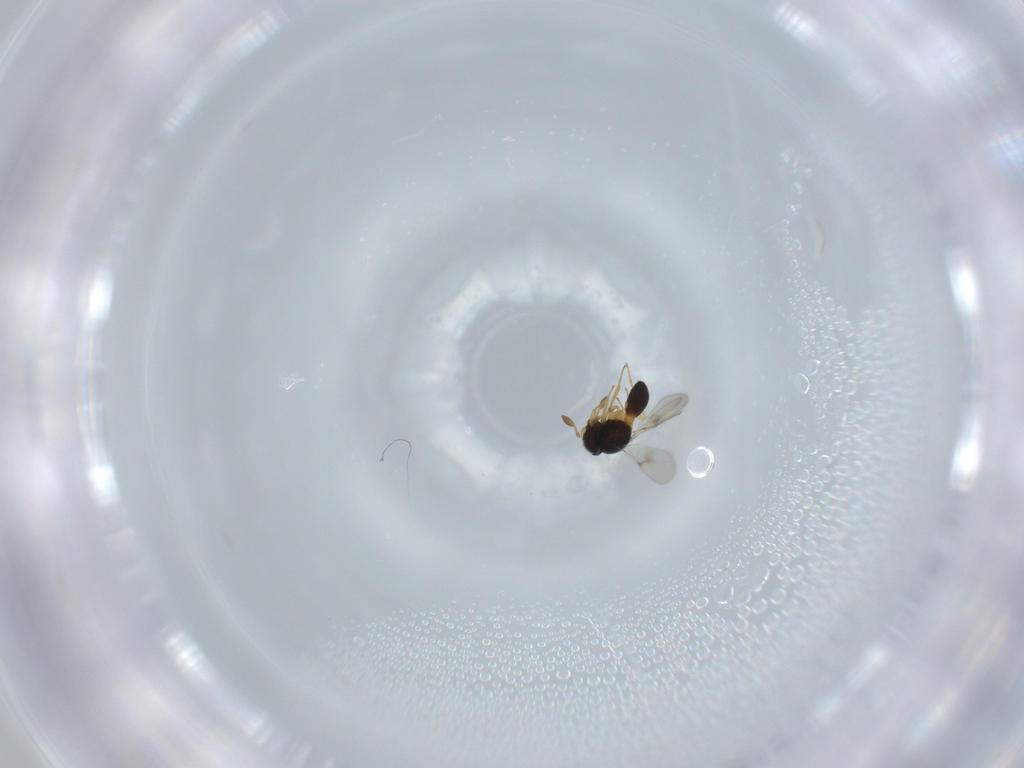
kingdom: Animalia
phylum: Arthropoda
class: Insecta
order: Hymenoptera
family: Scelionidae
